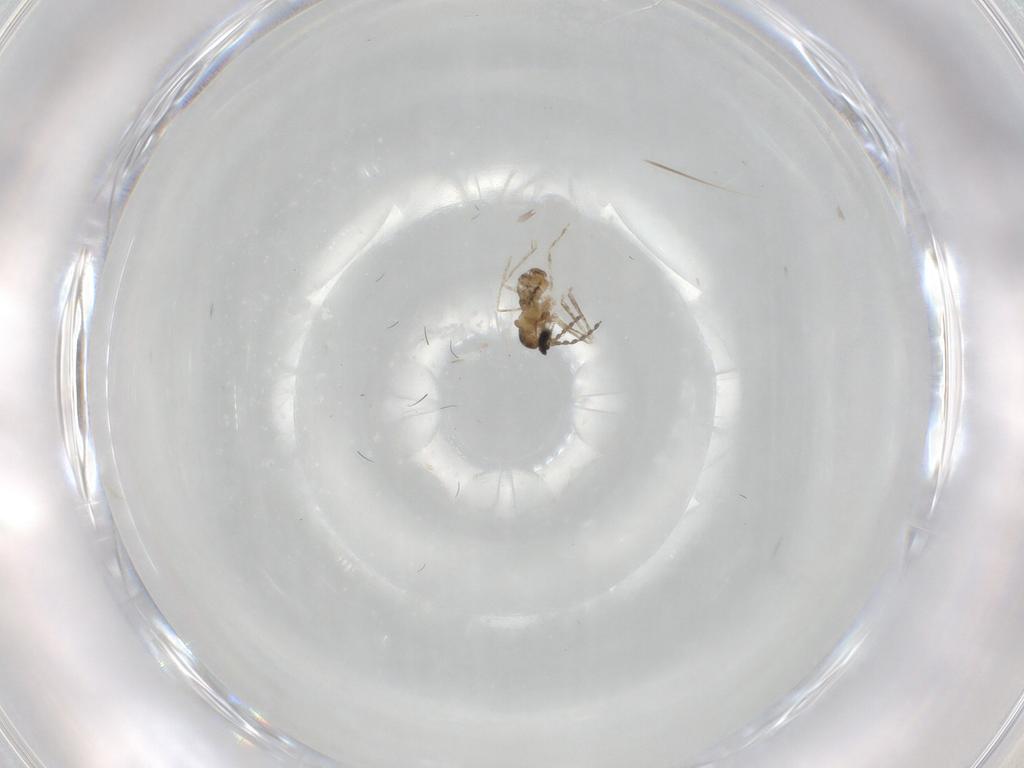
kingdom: Animalia
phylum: Arthropoda
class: Insecta
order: Diptera
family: Cecidomyiidae
